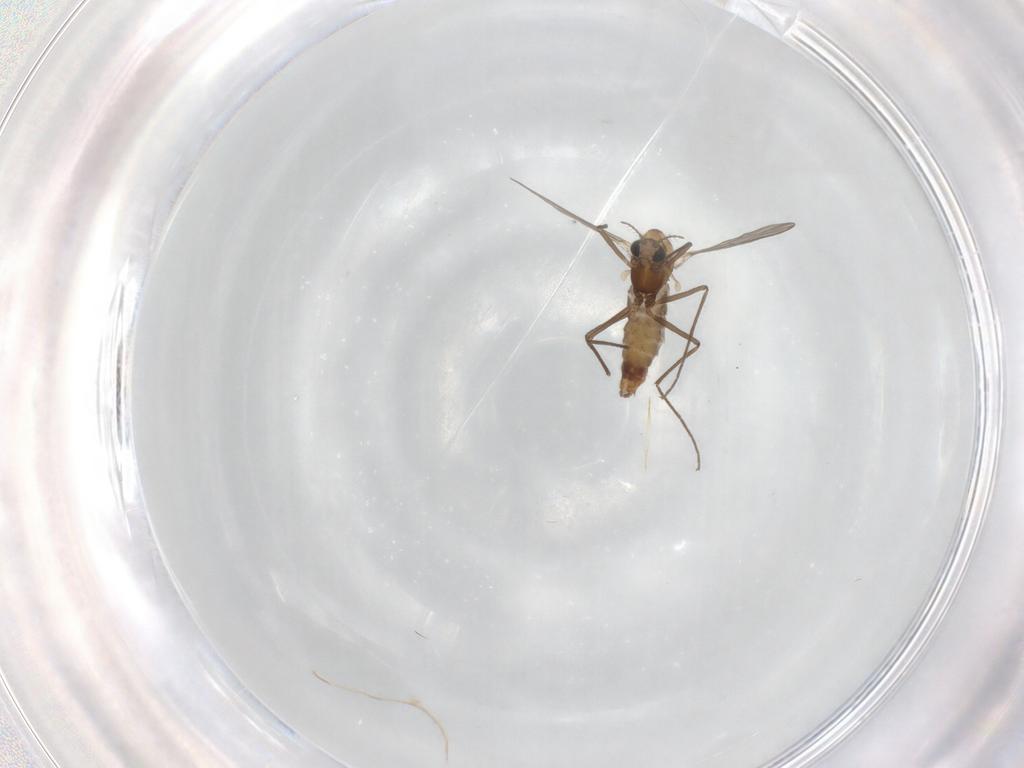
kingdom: Animalia
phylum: Arthropoda
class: Insecta
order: Diptera
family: Chironomidae
